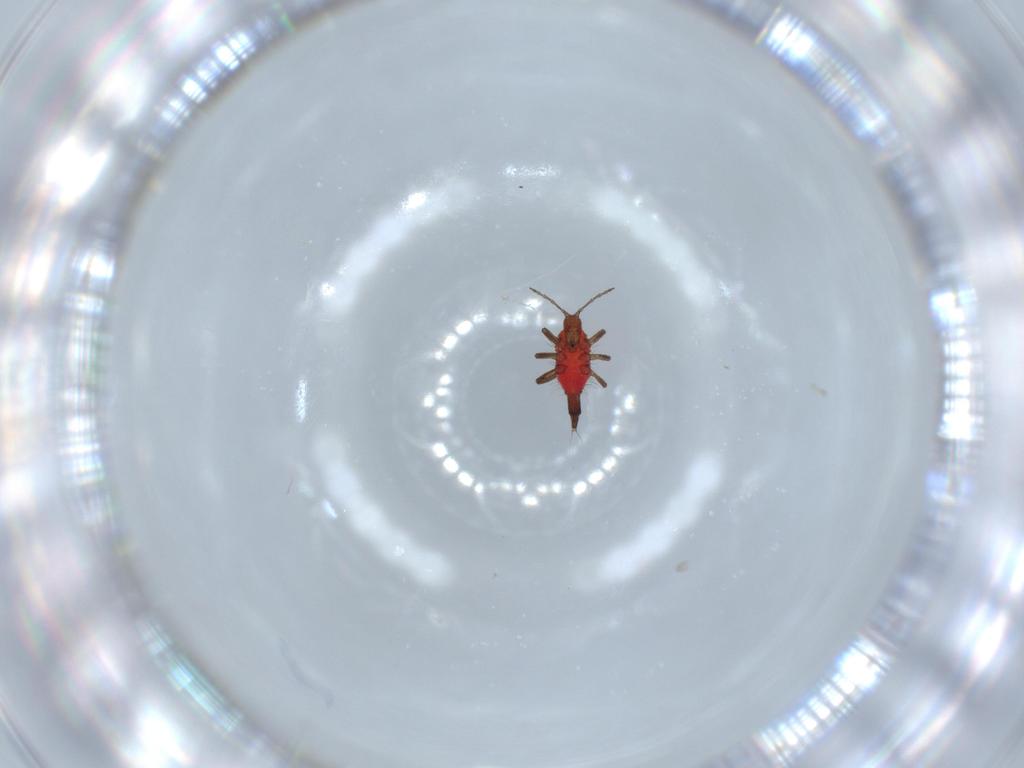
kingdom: Animalia
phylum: Arthropoda
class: Insecta
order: Thysanoptera
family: Phlaeothripidae
